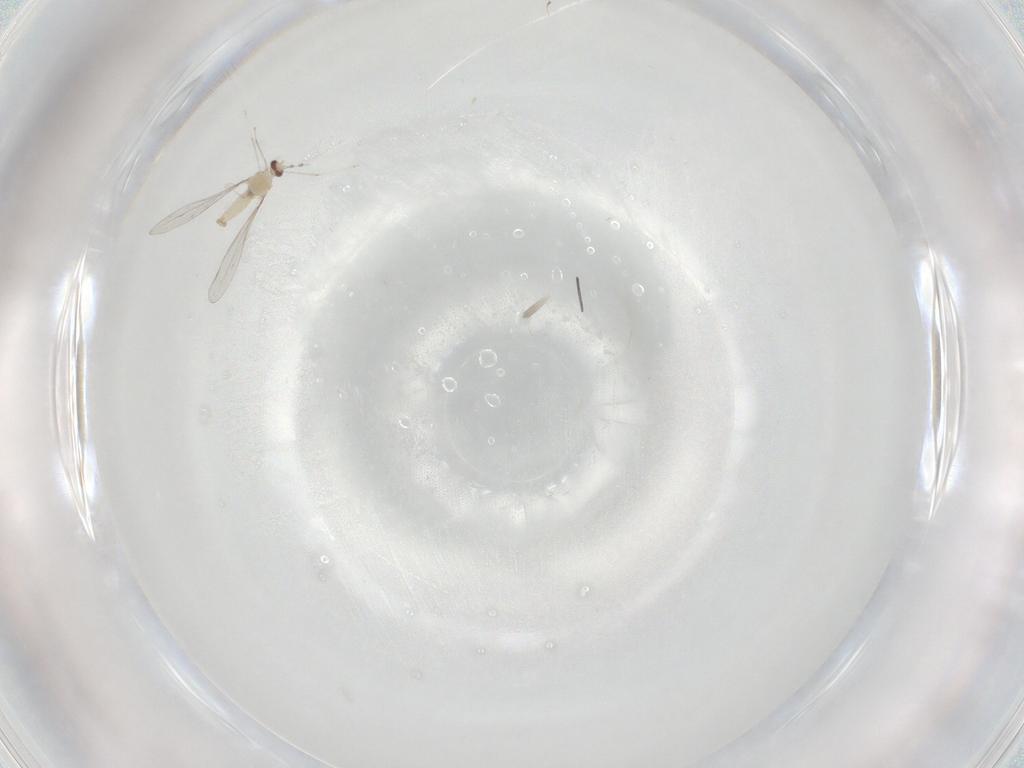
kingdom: Animalia
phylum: Arthropoda
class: Insecta
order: Diptera
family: Cecidomyiidae
